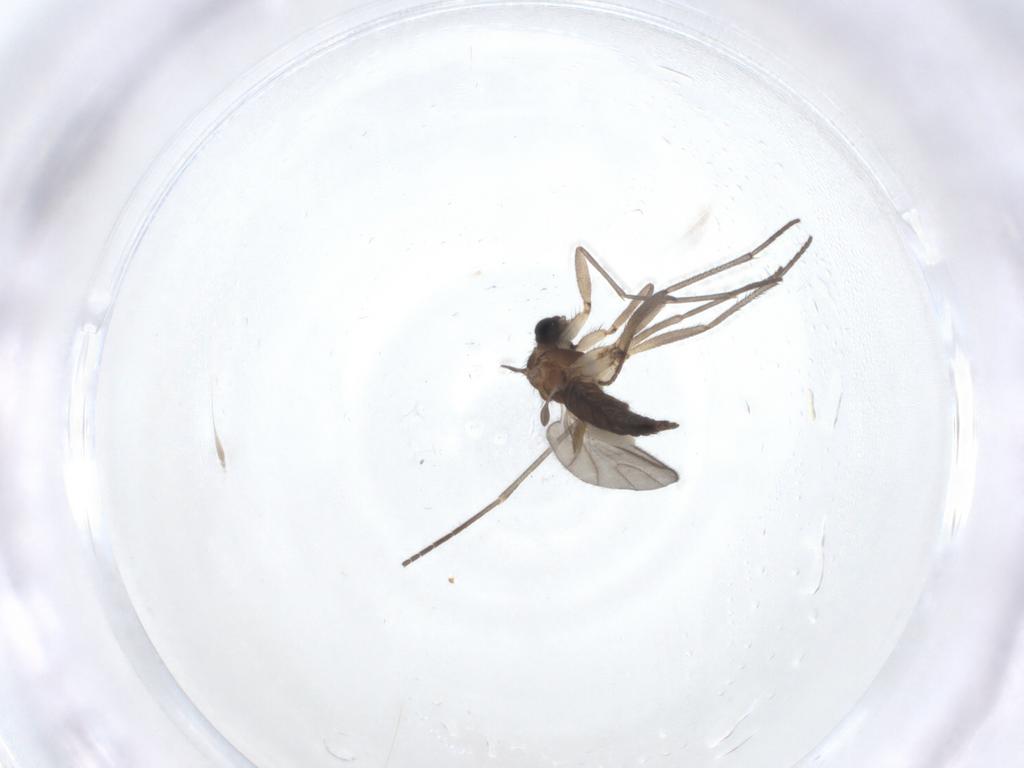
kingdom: Animalia
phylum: Arthropoda
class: Insecta
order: Diptera
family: Sciaridae
